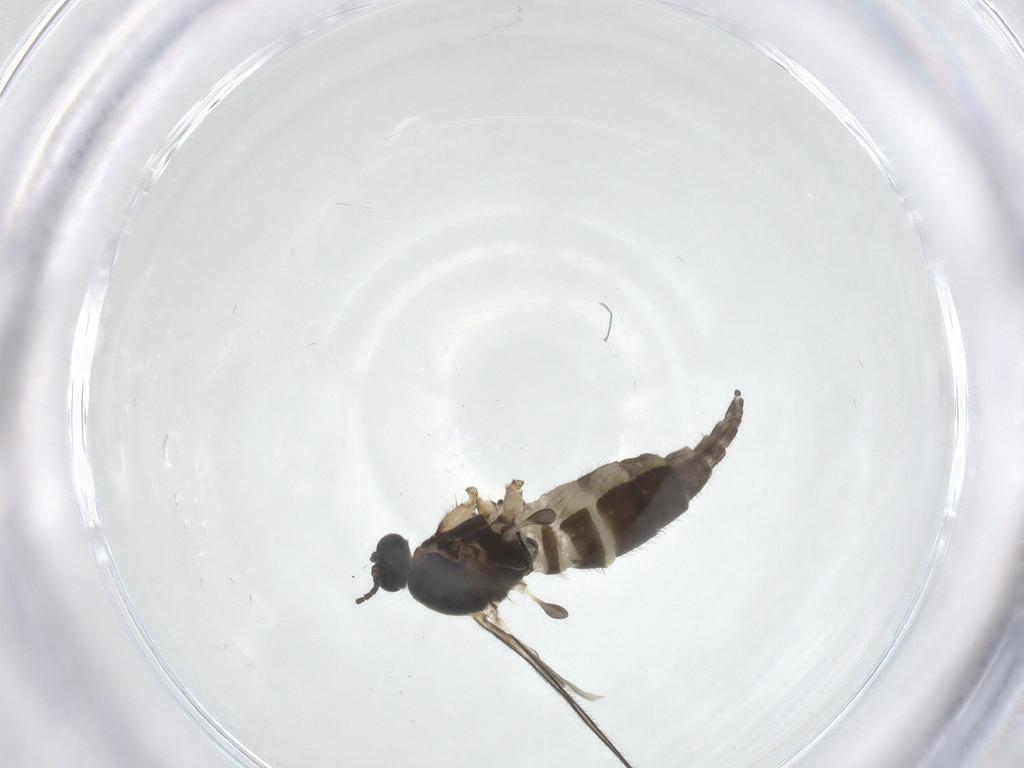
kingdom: Animalia
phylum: Arthropoda
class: Insecta
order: Diptera
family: Sciaridae
